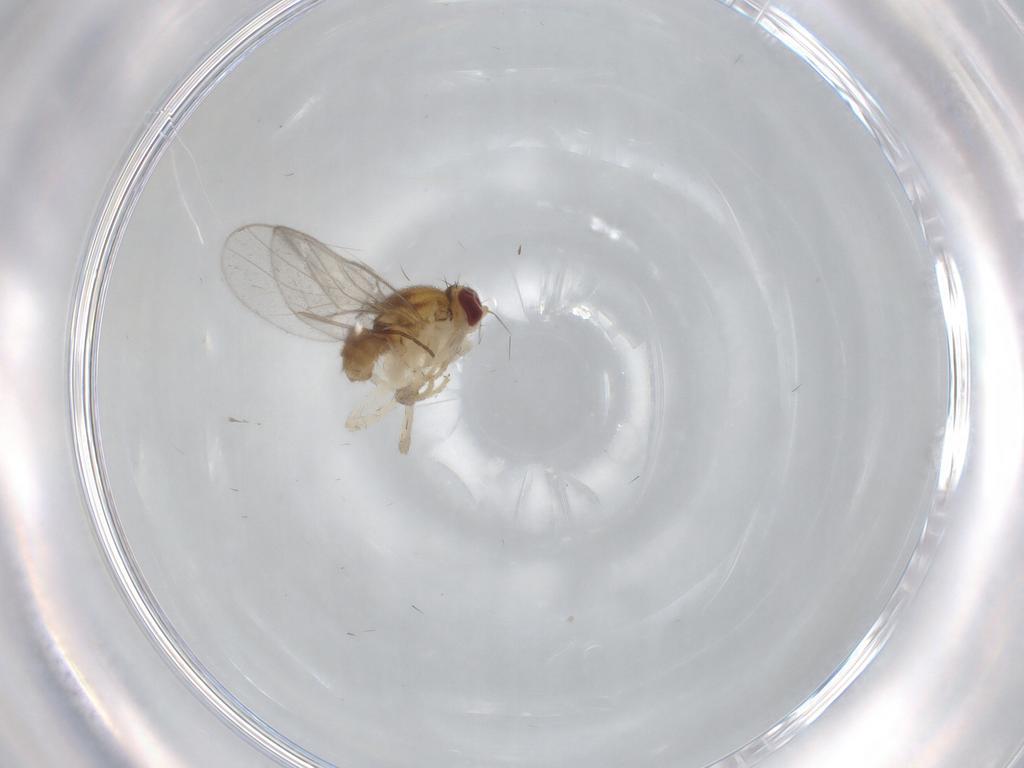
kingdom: Animalia
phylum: Arthropoda
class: Insecta
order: Diptera
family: Chloropidae
